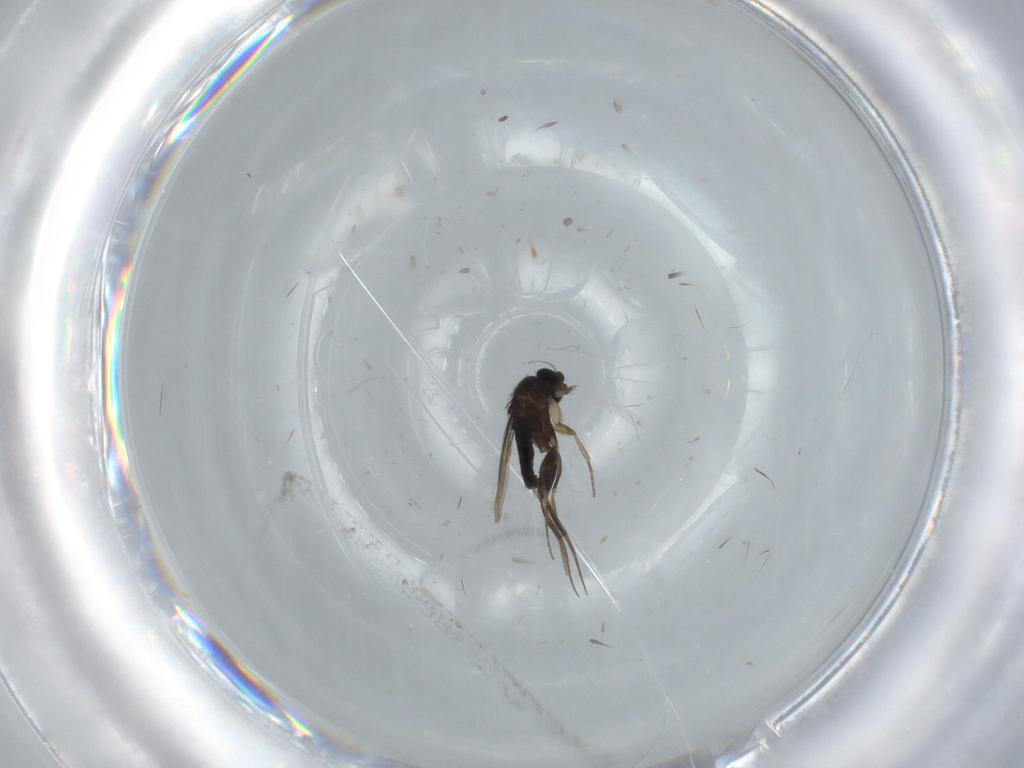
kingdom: Animalia
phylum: Arthropoda
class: Insecta
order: Diptera
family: Phoridae
